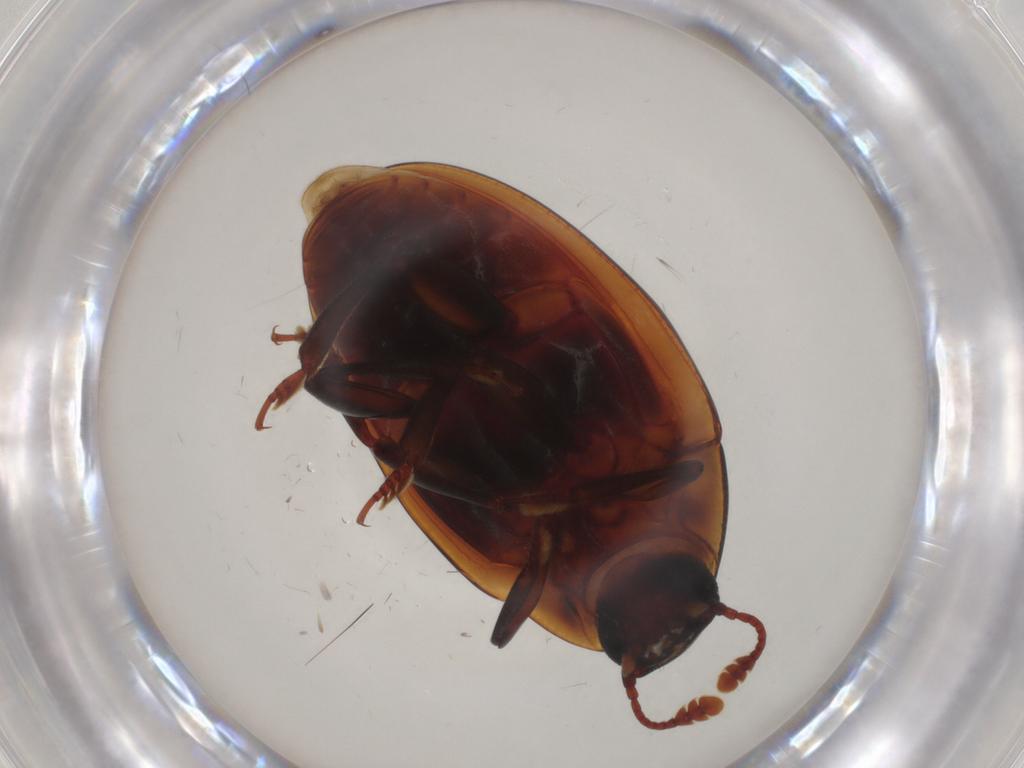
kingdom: Animalia
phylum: Arthropoda
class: Insecta
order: Coleoptera
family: Zopheridae
